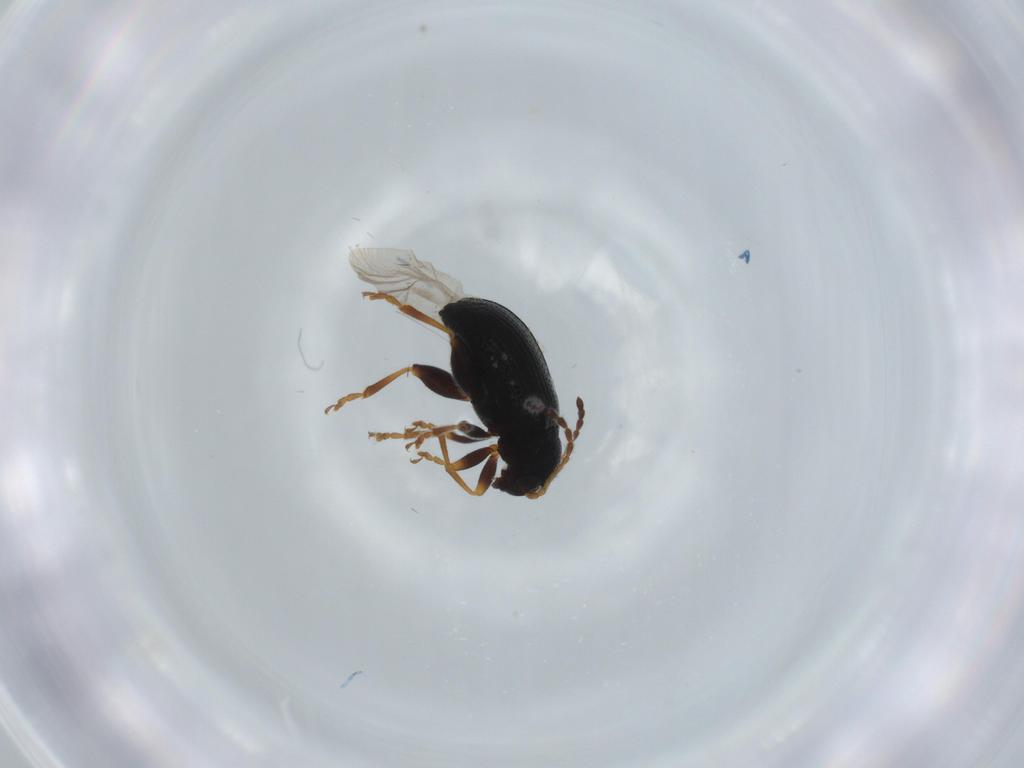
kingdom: Animalia
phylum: Arthropoda
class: Insecta
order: Coleoptera
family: Chrysomelidae
